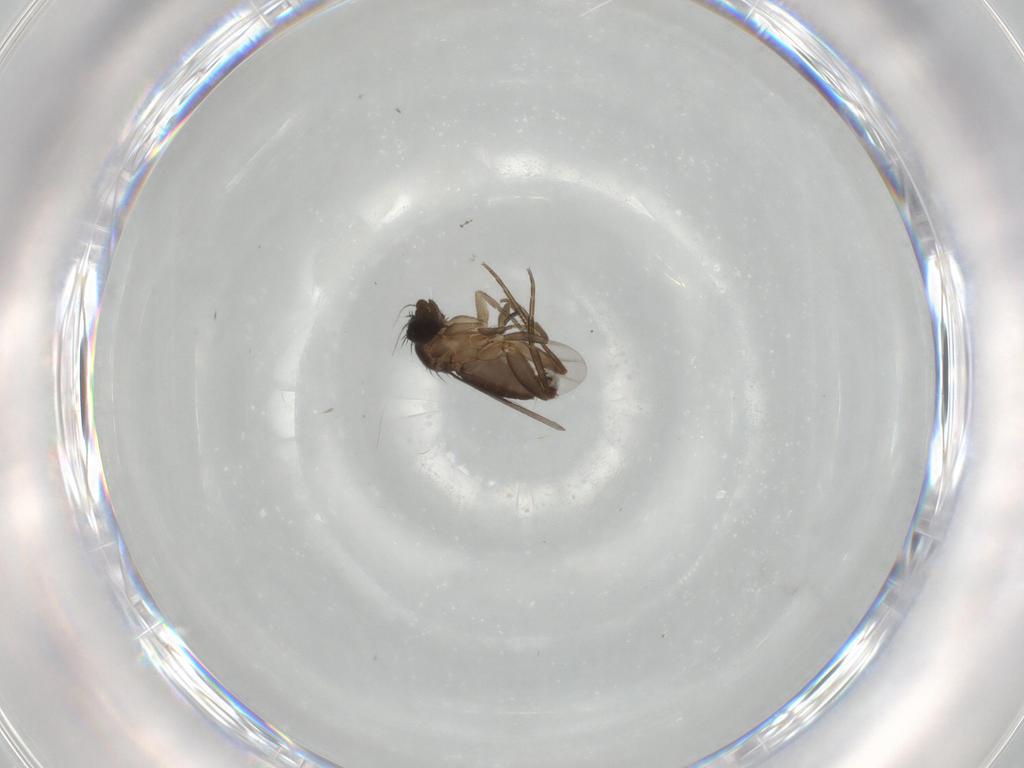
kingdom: Animalia
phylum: Arthropoda
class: Insecta
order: Diptera
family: Phoridae
